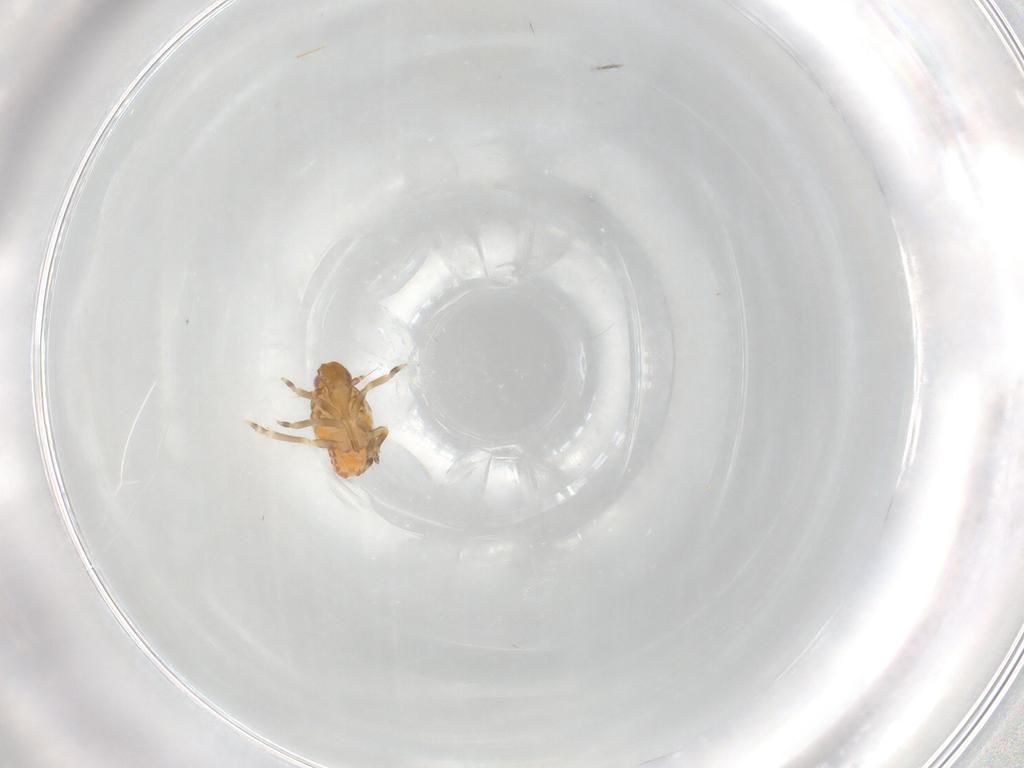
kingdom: Animalia
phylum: Arthropoda
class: Insecta
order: Hemiptera
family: Flatidae
